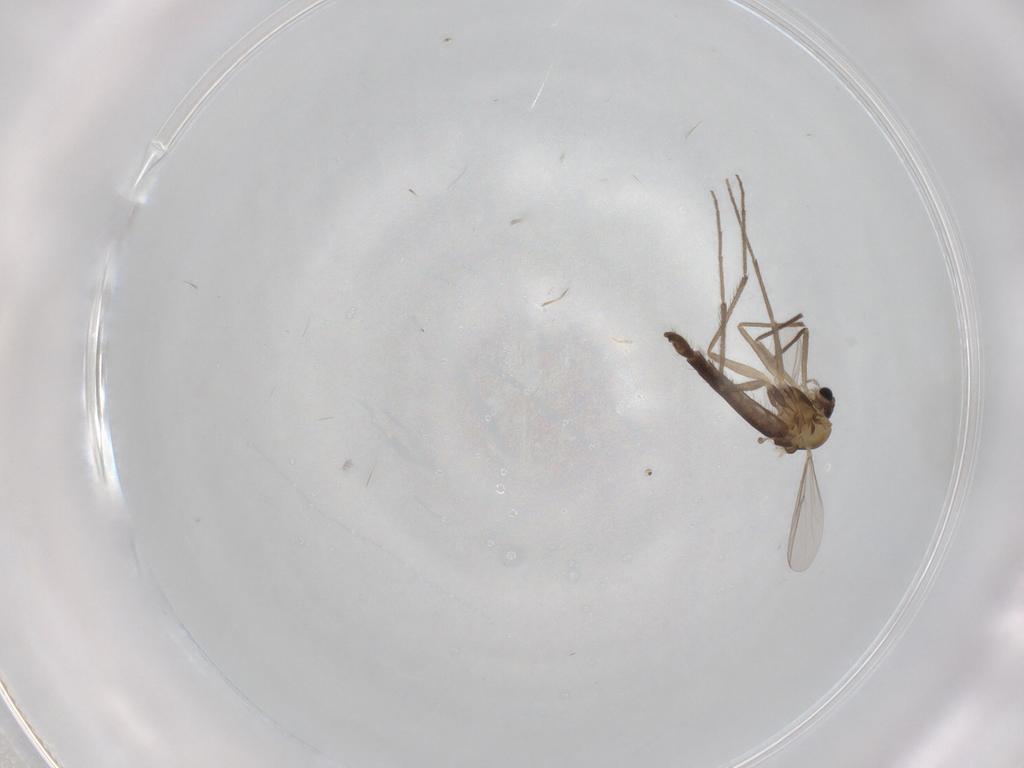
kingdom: Animalia
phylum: Arthropoda
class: Insecta
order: Diptera
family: Chironomidae
